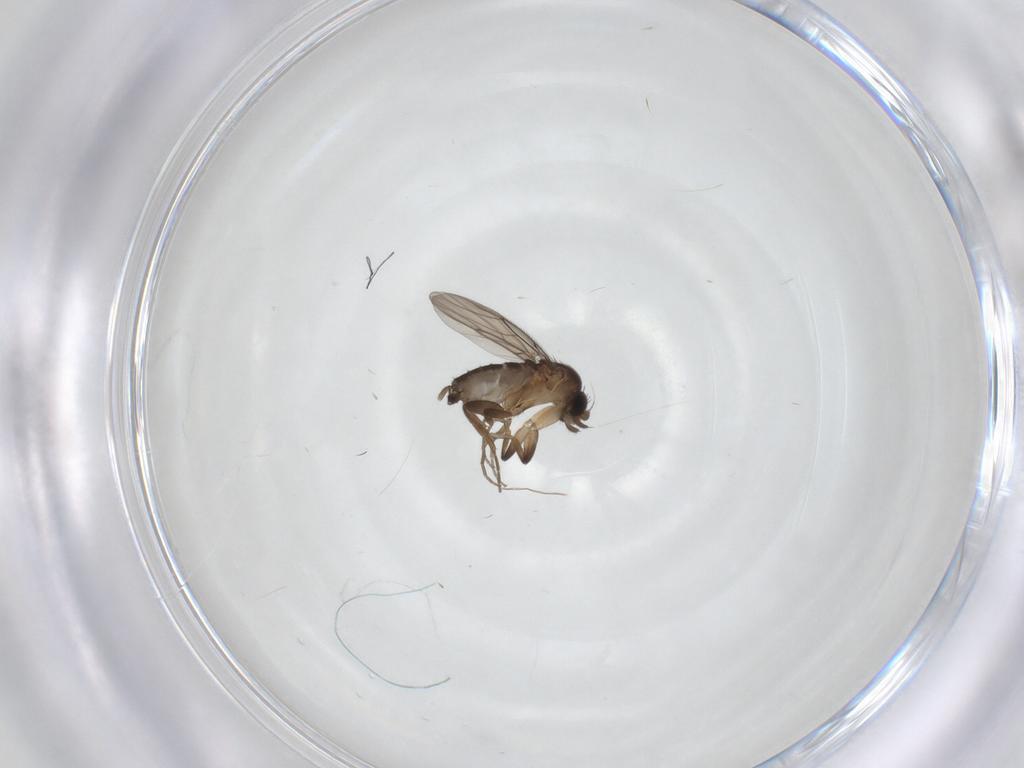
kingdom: Animalia
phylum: Arthropoda
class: Insecta
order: Diptera
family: Phoridae
